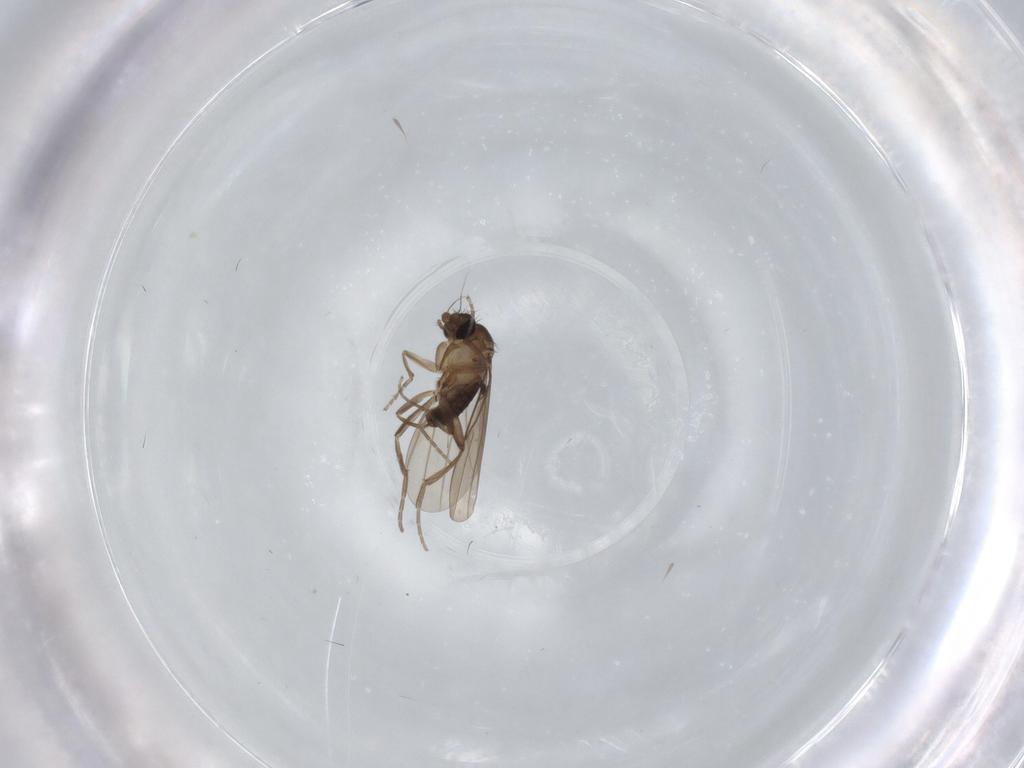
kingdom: Animalia
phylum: Arthropoda
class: Insecta
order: Diptera
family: Phoridae
